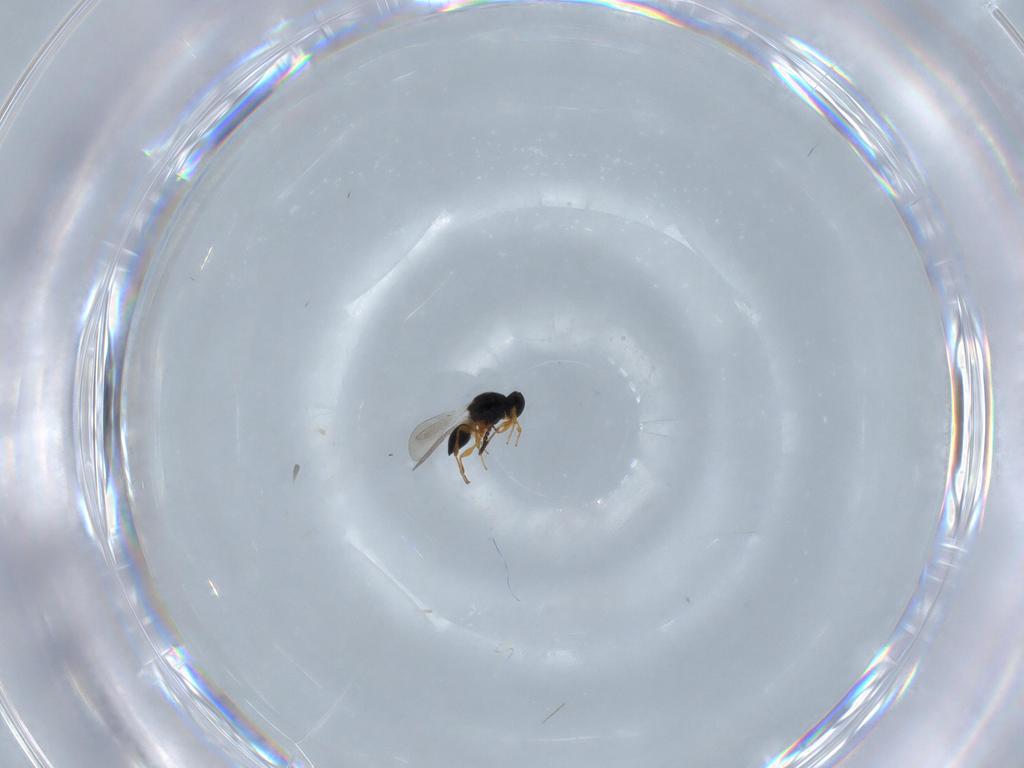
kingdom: Animalia
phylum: Arthropoda
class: Insecta
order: Hymenoptera
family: Platygastridae
